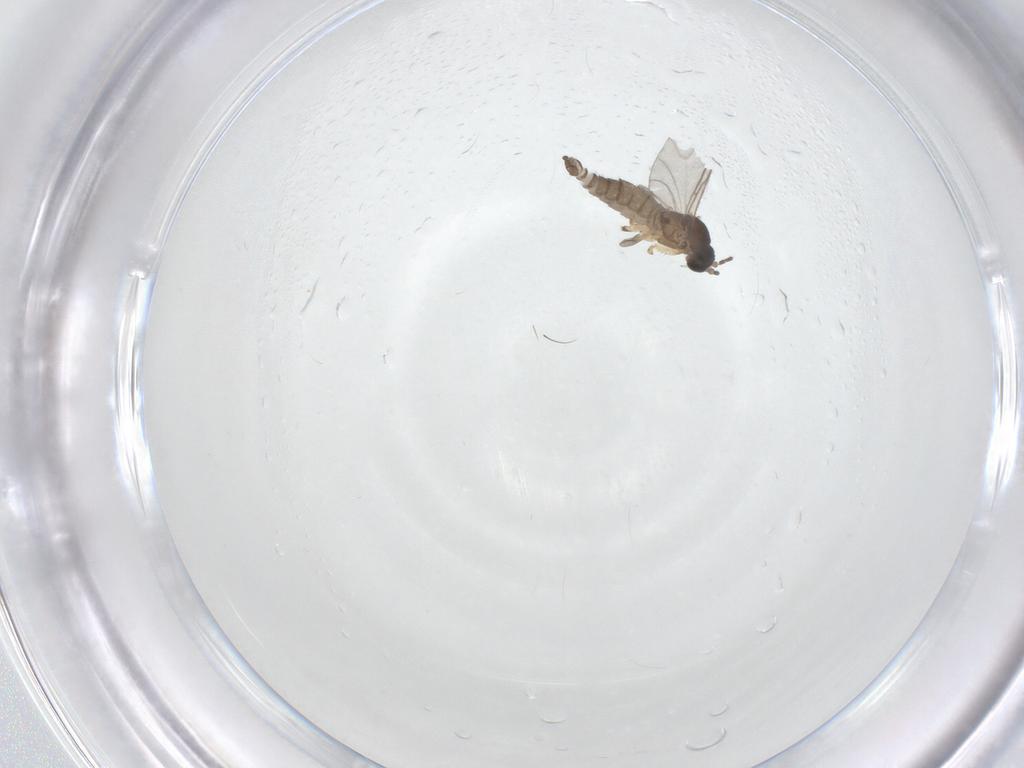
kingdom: Animalia
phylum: Arthropoda
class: Insecta
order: Diptera
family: Sciaridae
